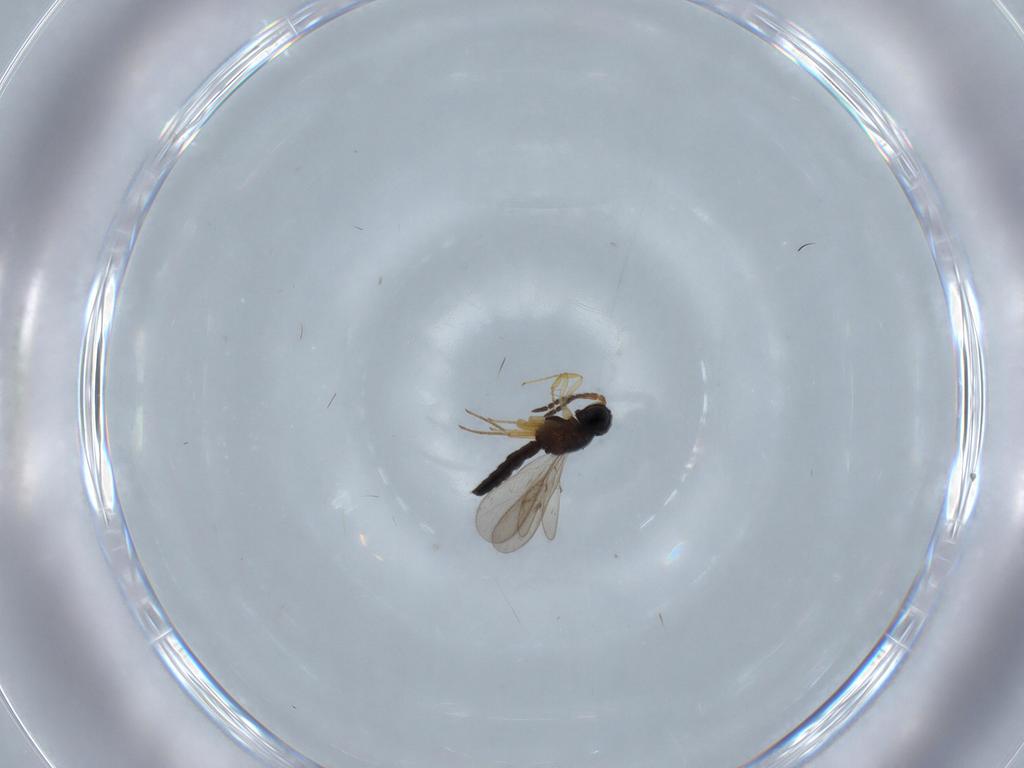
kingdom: Animalia
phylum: Arthropoda
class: Insecta
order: Hymenoptera
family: Scelionidae
